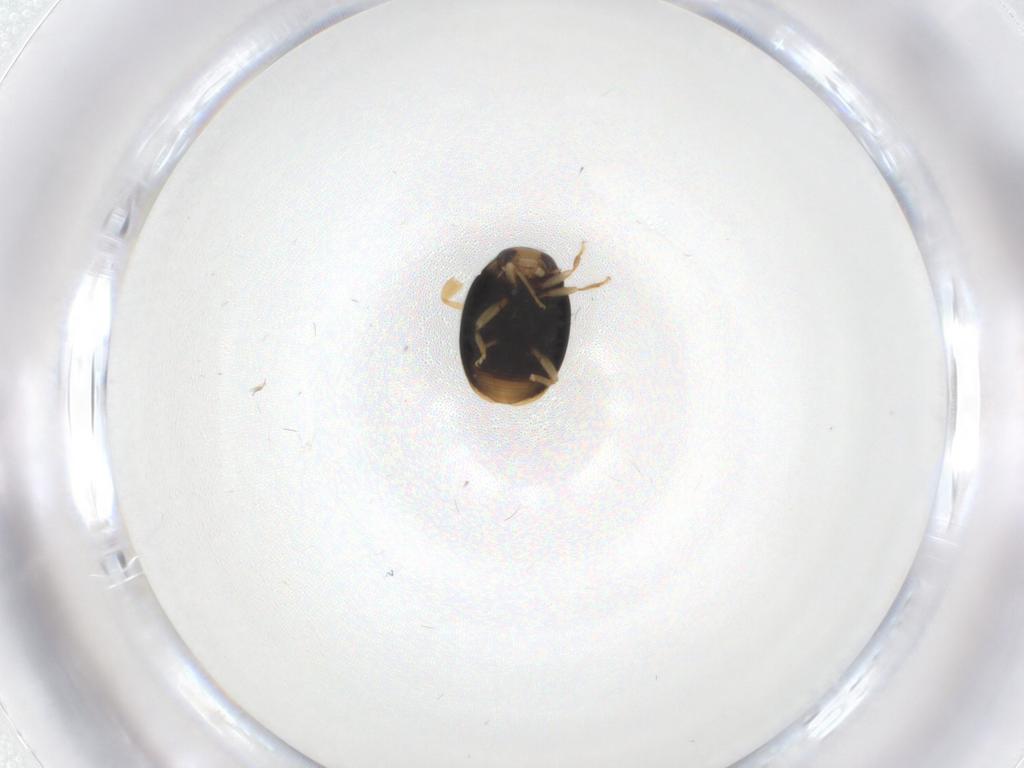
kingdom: Animalia
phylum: Arthropoda
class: Insecta
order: Coleoptera
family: Coccinellidae
